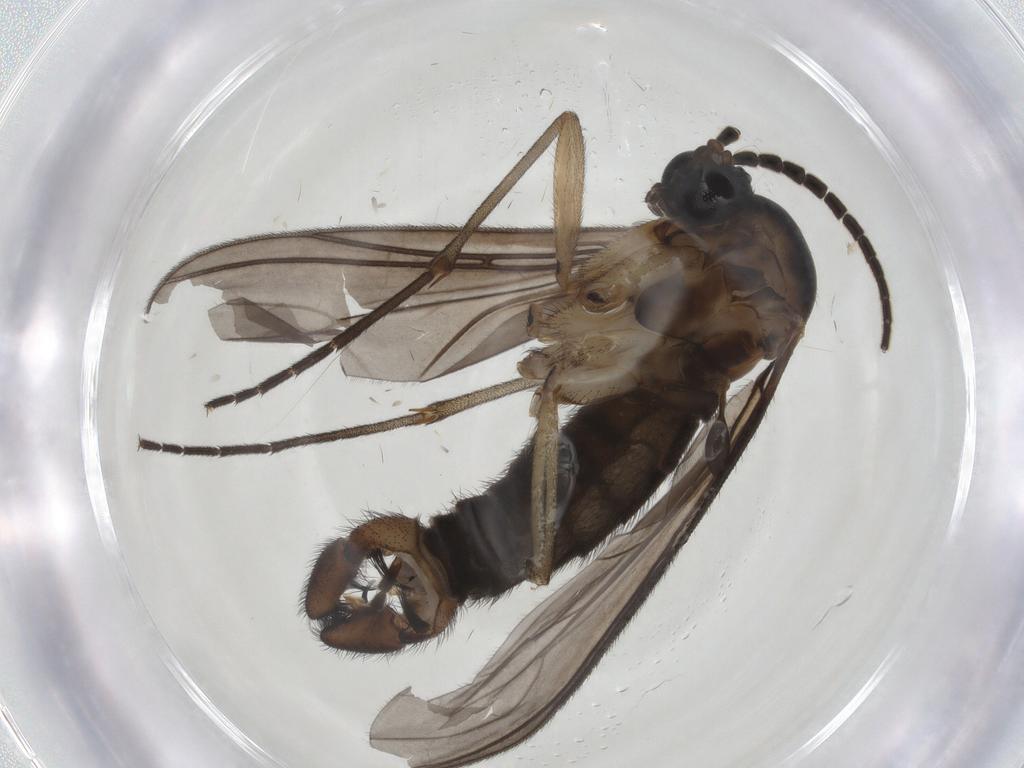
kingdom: Animalia
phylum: Arthropoda
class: Insecta
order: Diptera
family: Sciaridae
